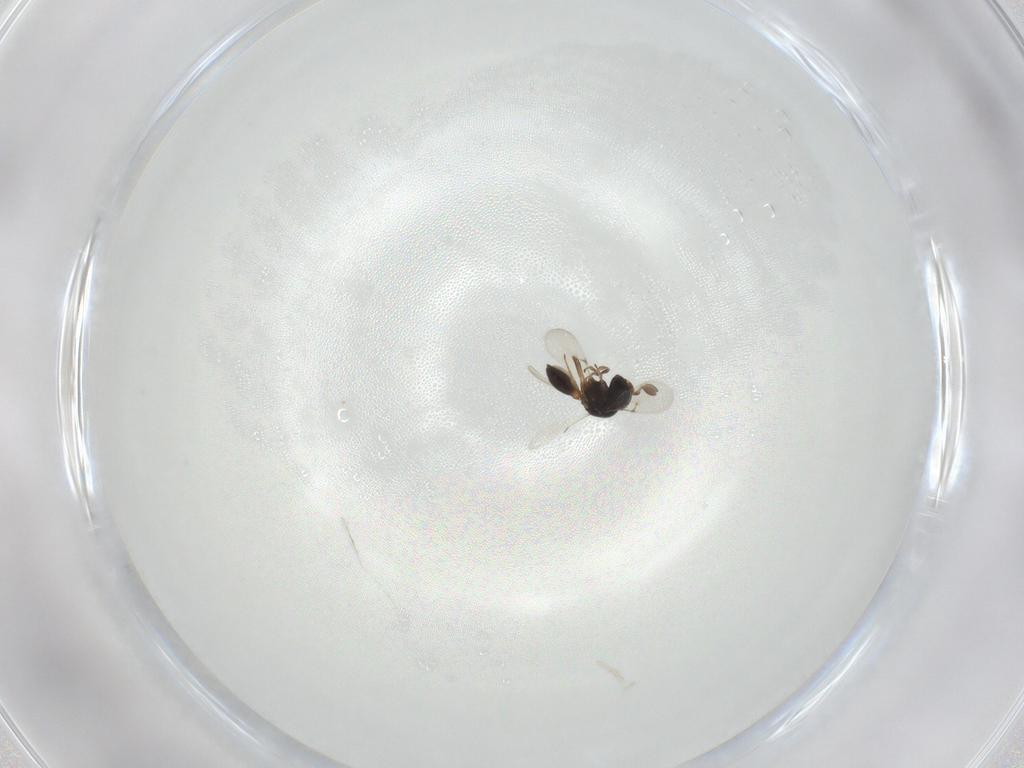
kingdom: Animalia
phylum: Arthropoda
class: Insecta
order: Hymenoptera
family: Scelionidae
